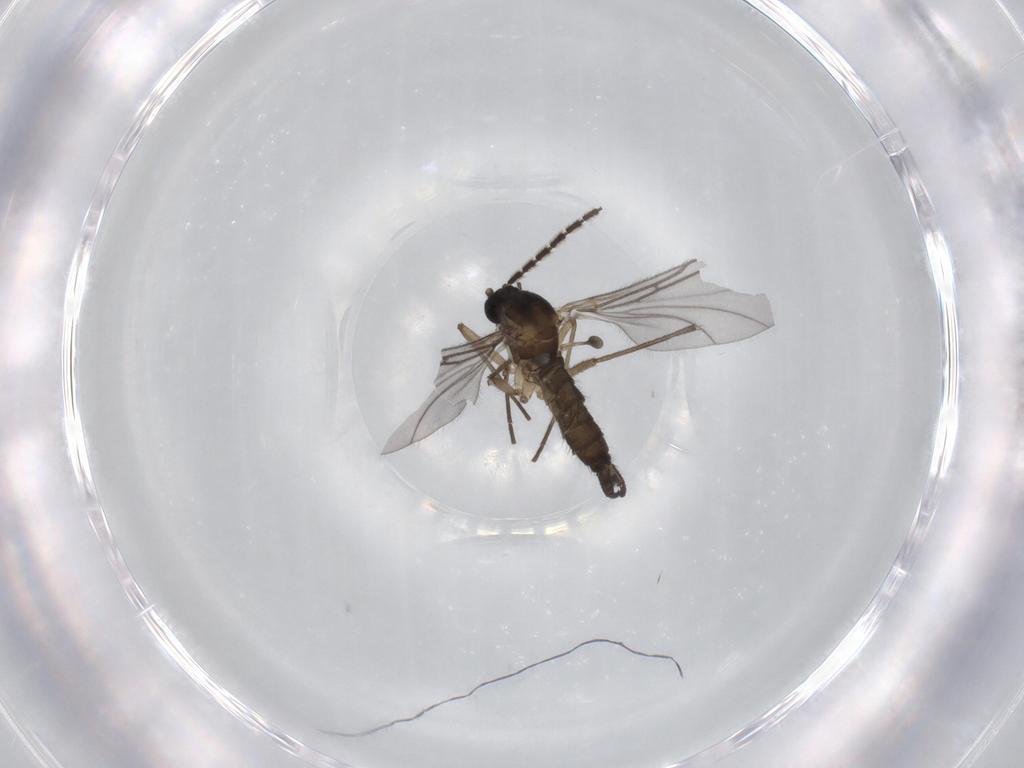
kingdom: Animalia
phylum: Arthropoda
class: Insecta
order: Diptera
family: Sciaridae
